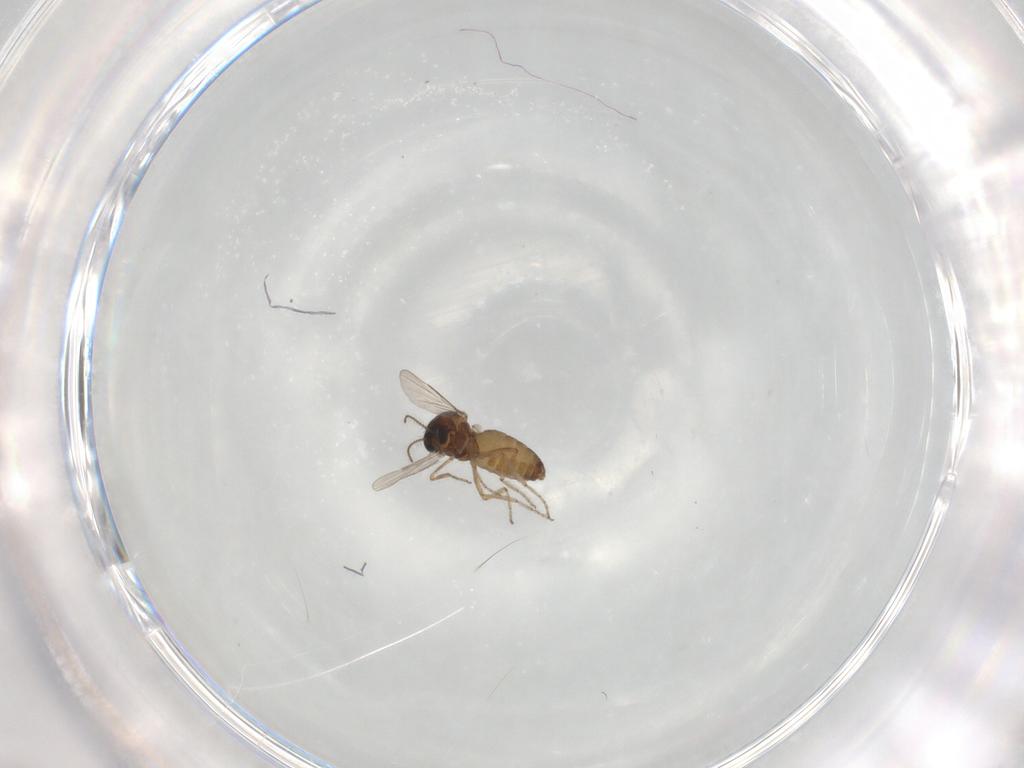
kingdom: Animalia
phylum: Arthropoda
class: Insecta
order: Diptera
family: Ceratopogonidae
